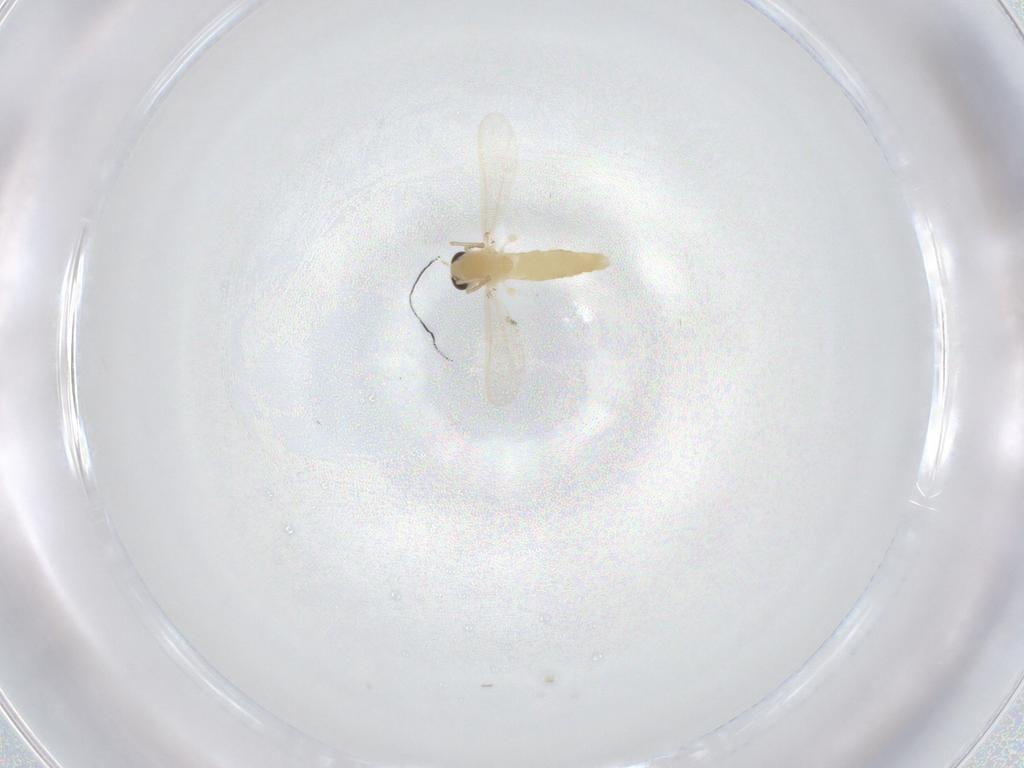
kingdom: Animalia
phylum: Arthropoda
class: Insecta
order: Diptera
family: Chironomidae
